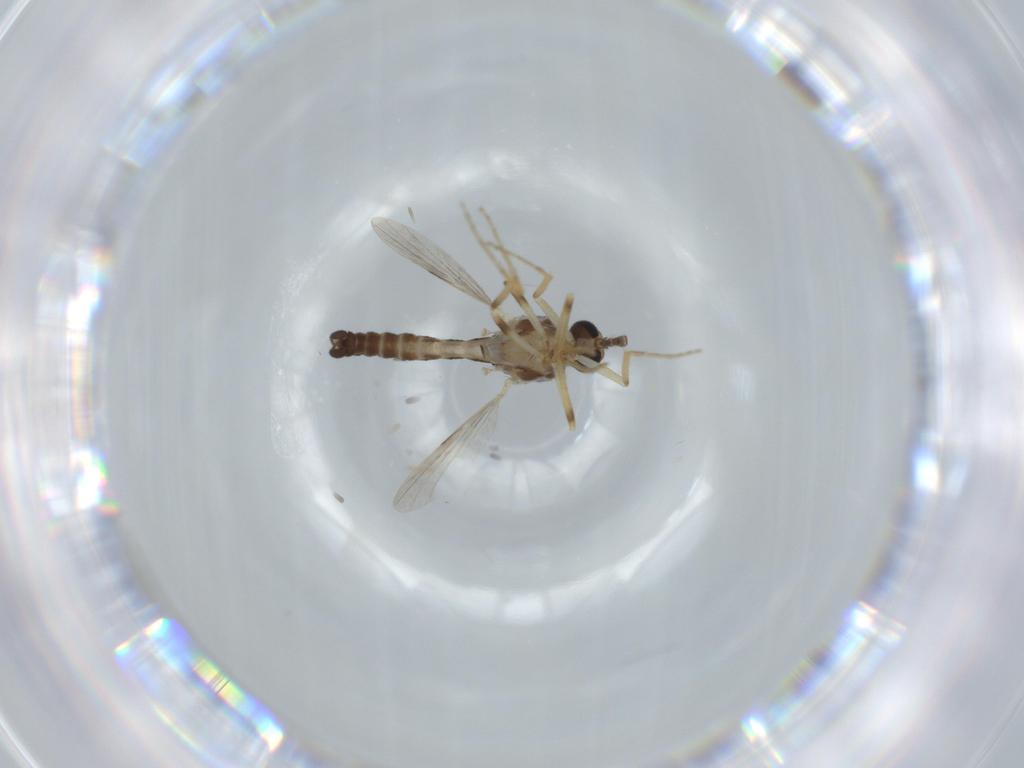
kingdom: Animalia
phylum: Arthropoda
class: Insecta
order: Diptera
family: Ceratopogonidae
